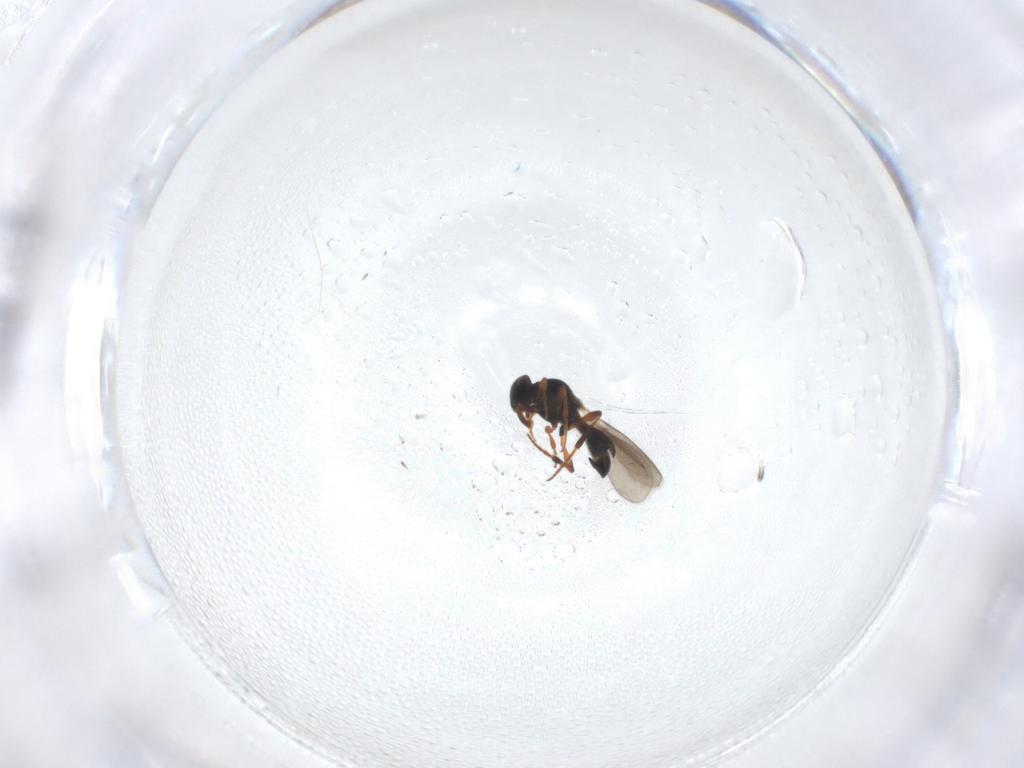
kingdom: Animalia
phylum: Arthropoda
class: Insecta
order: Hymenoptera
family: Platygastridae
